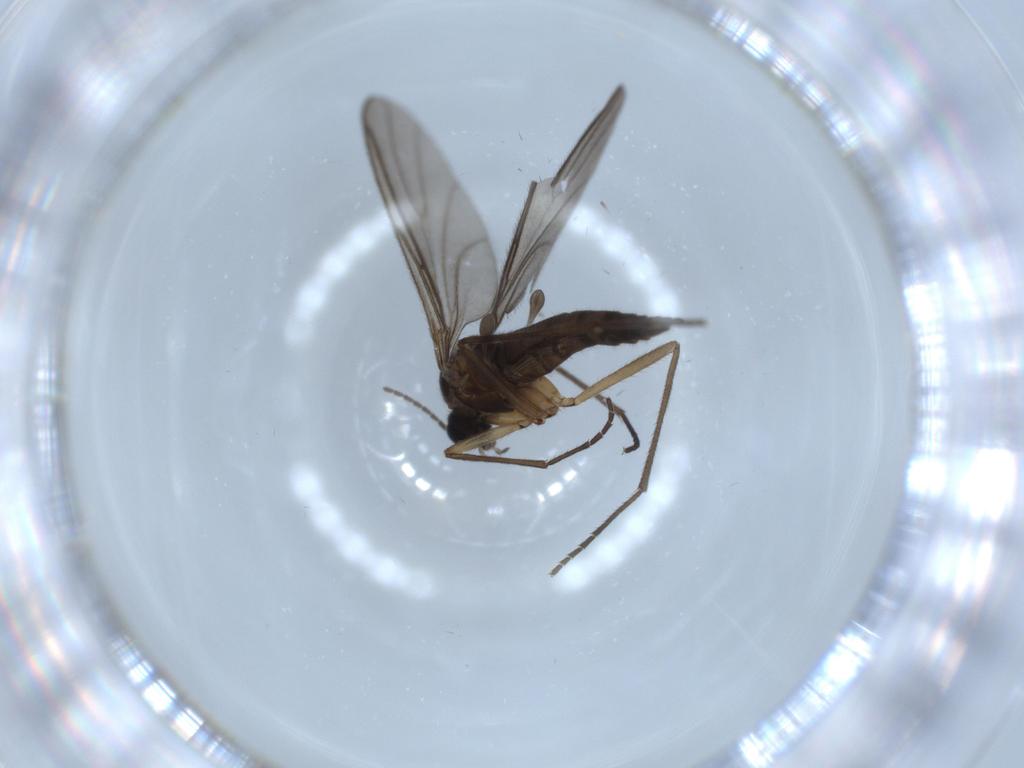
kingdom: Animalia
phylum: Arthropoda
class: Insecta
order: Diptera
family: Sciaridae
